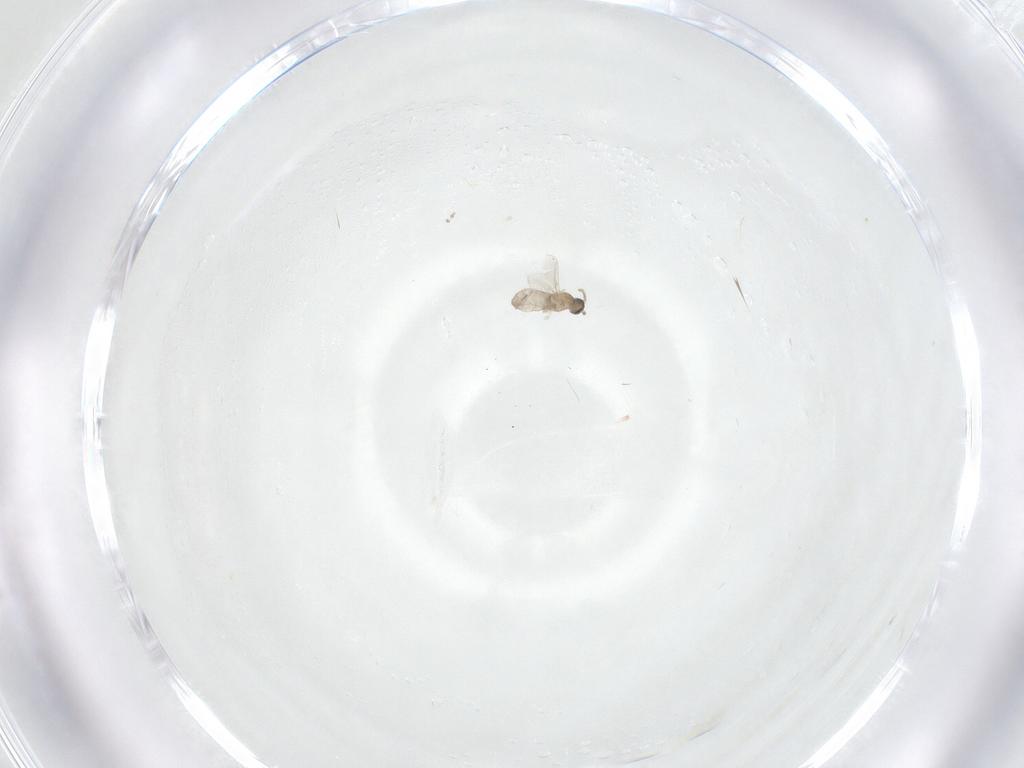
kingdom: Animalia
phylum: Arthropoda
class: Insecta
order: Diptera
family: Cecidomyiidae
